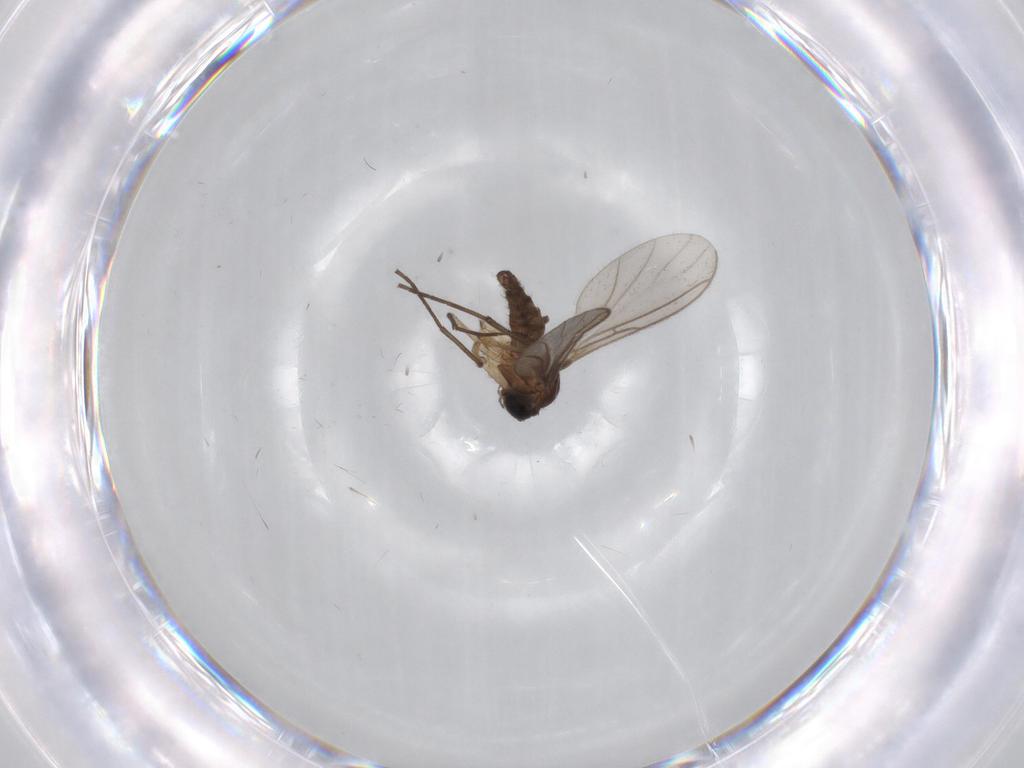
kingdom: Animalia
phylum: Arthropoda
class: Insecta
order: Diptera
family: Sciaridae
